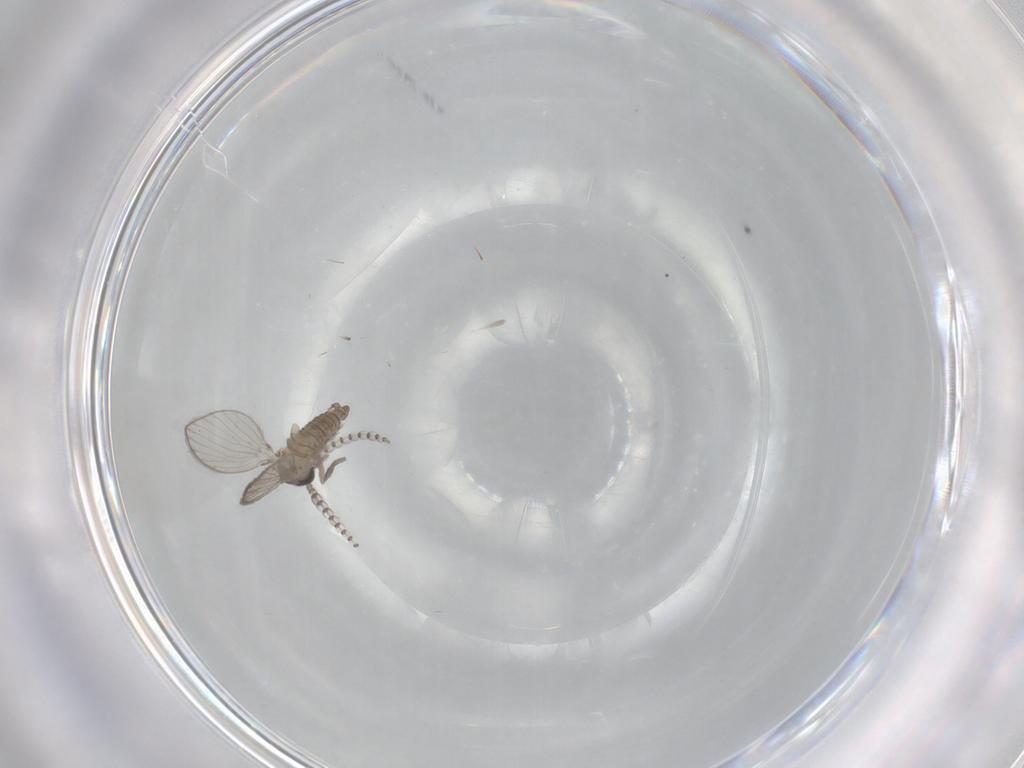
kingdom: Animalia
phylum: Arthropoda
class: Insecta
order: Diptera
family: Psychodidae
